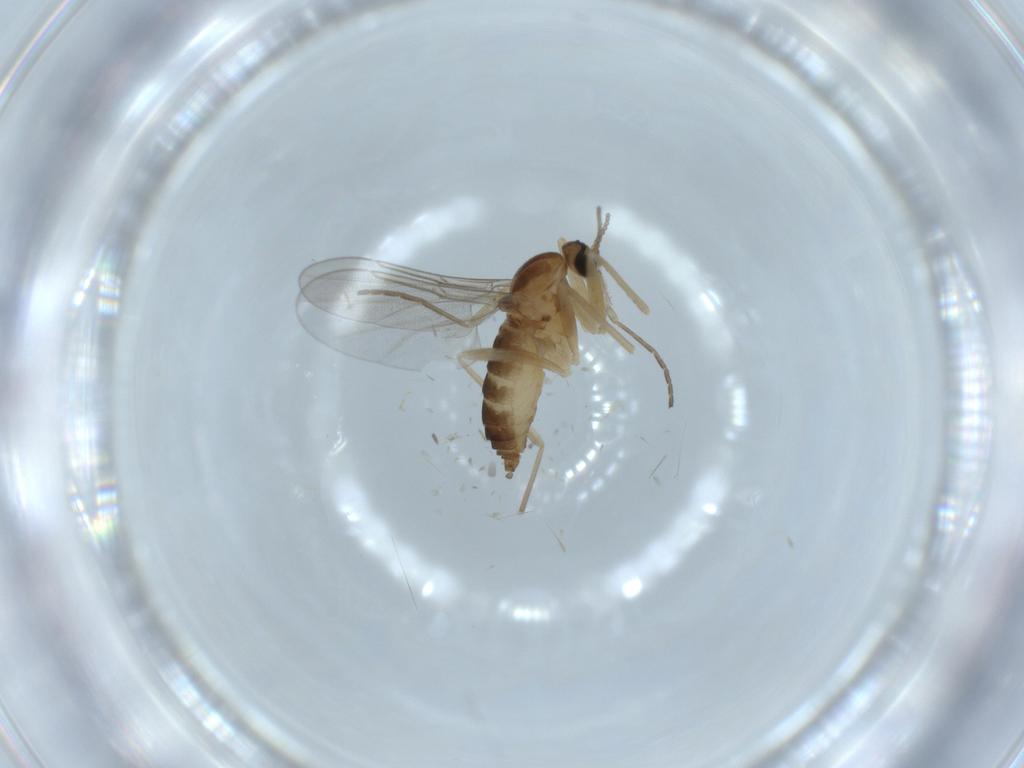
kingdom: Animalia
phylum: Arthropoda
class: Insecta
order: Diptera
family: Cecidomyiidae
